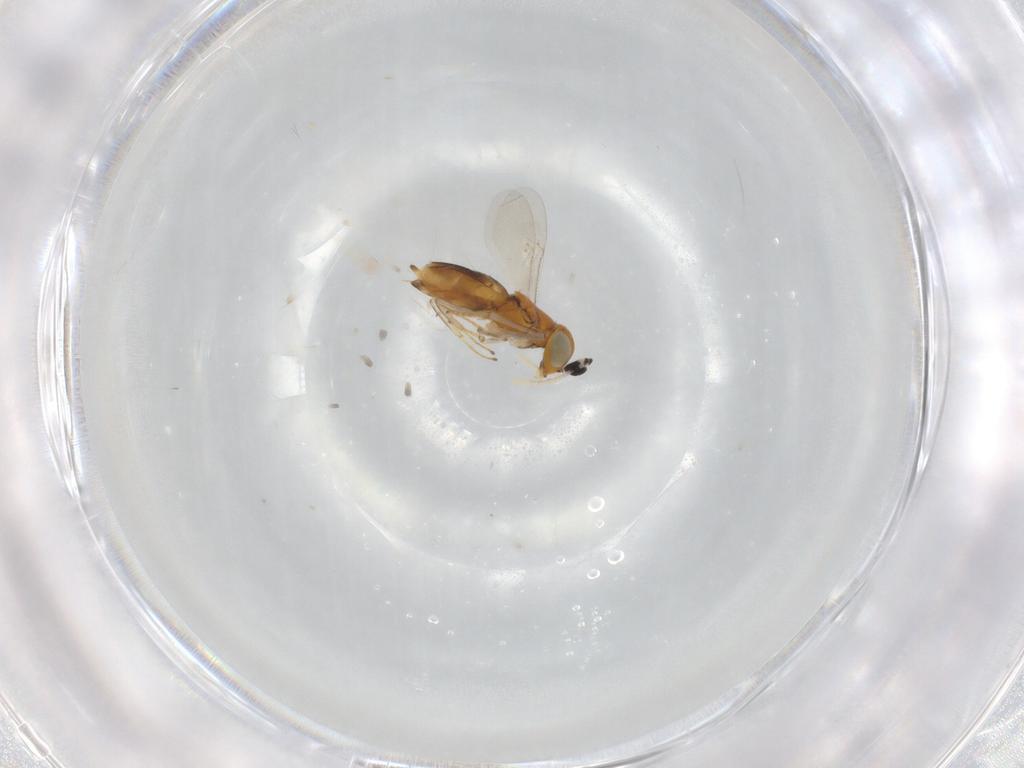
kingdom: Animalia
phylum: Arthropoda
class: Insecta
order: Hymenoptera
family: Encyrtidae
